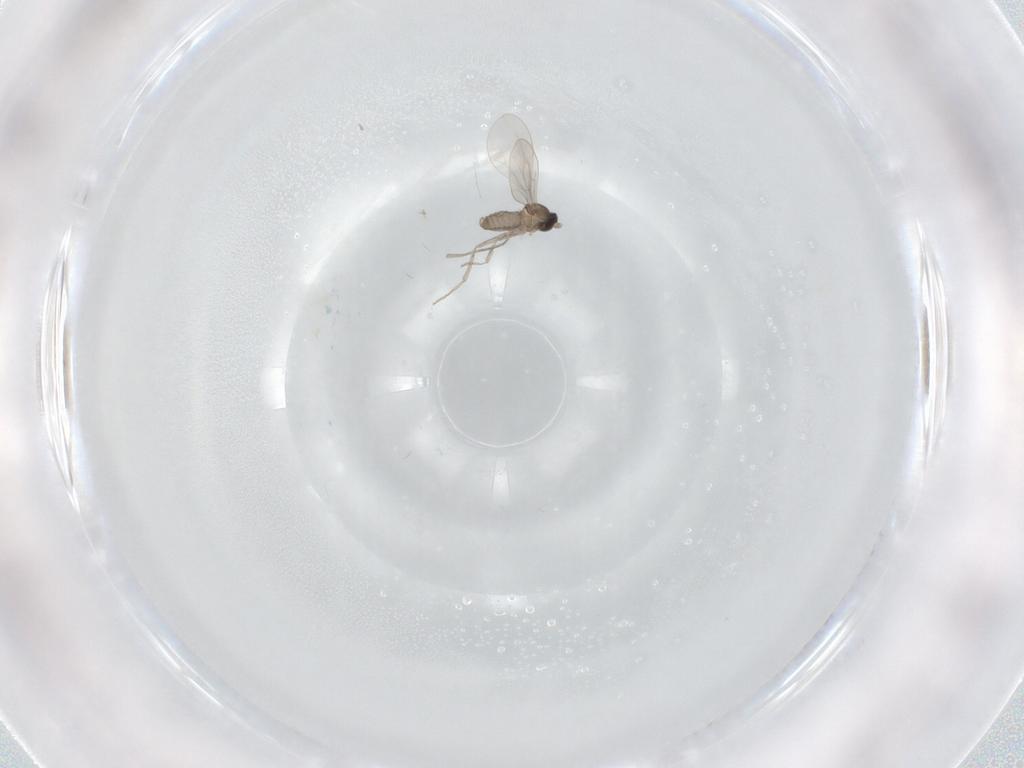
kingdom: Animalia
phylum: Arthropoda
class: Insecta
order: Diptera
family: Cecidomyiidae
